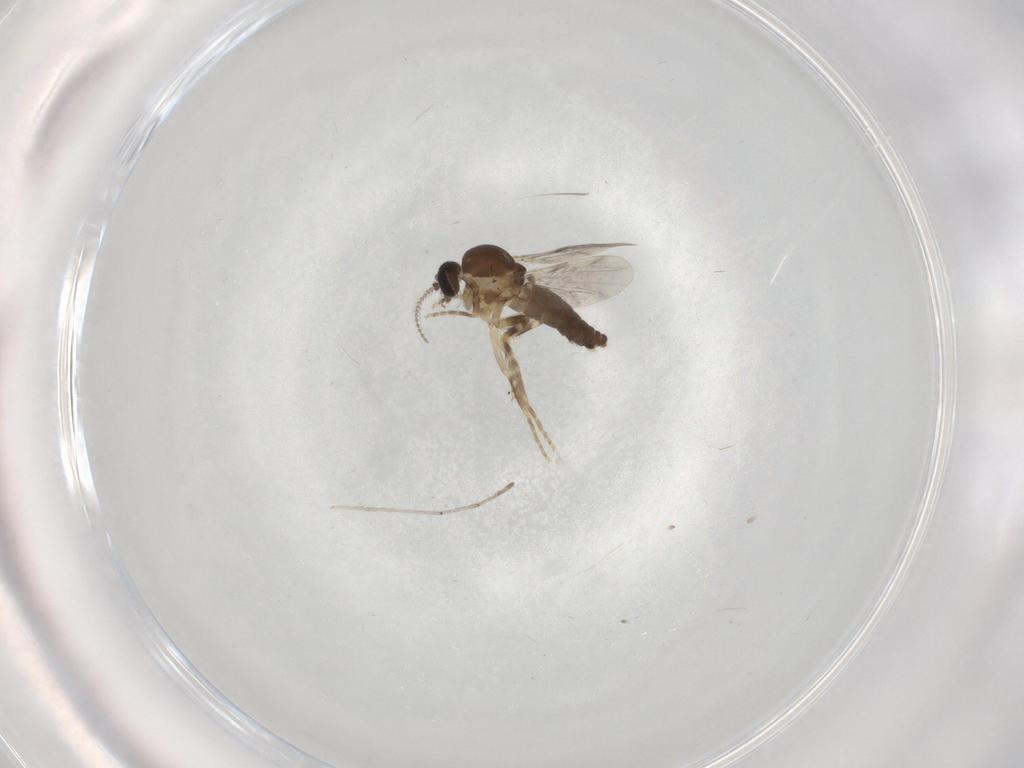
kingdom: Animalia
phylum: Arthropoda
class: Insecta
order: Diptera
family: Ceratopogonidae
